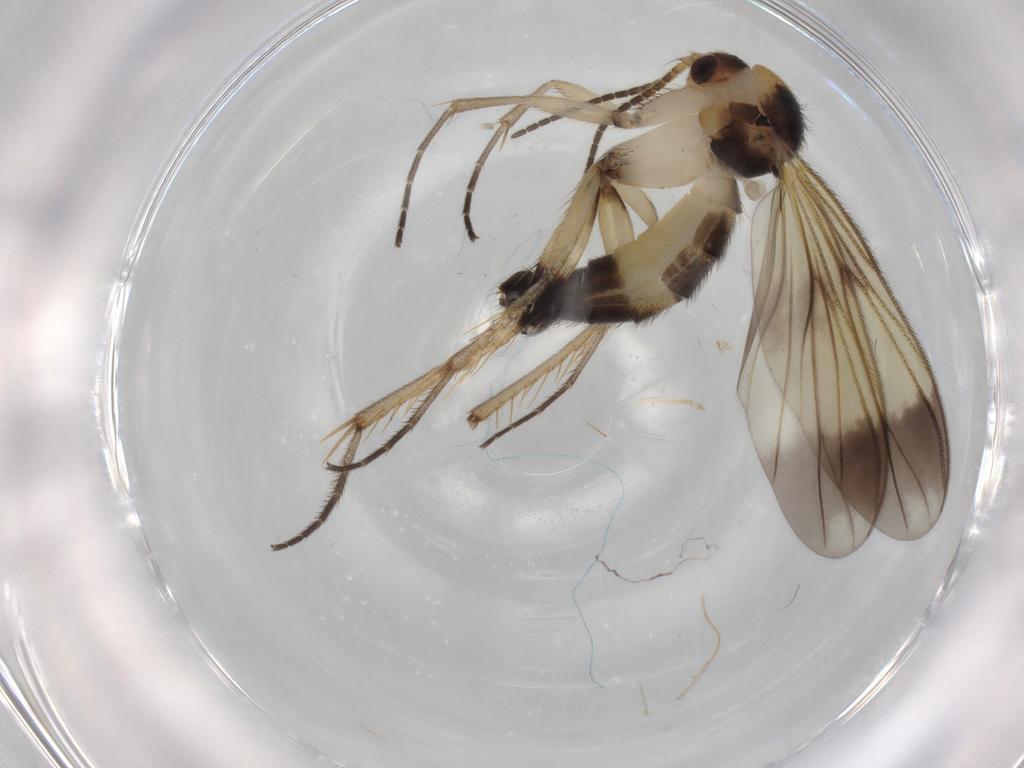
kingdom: Animalia
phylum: Arthropoda
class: Insecta
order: Diptera
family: Mycetophilidae
